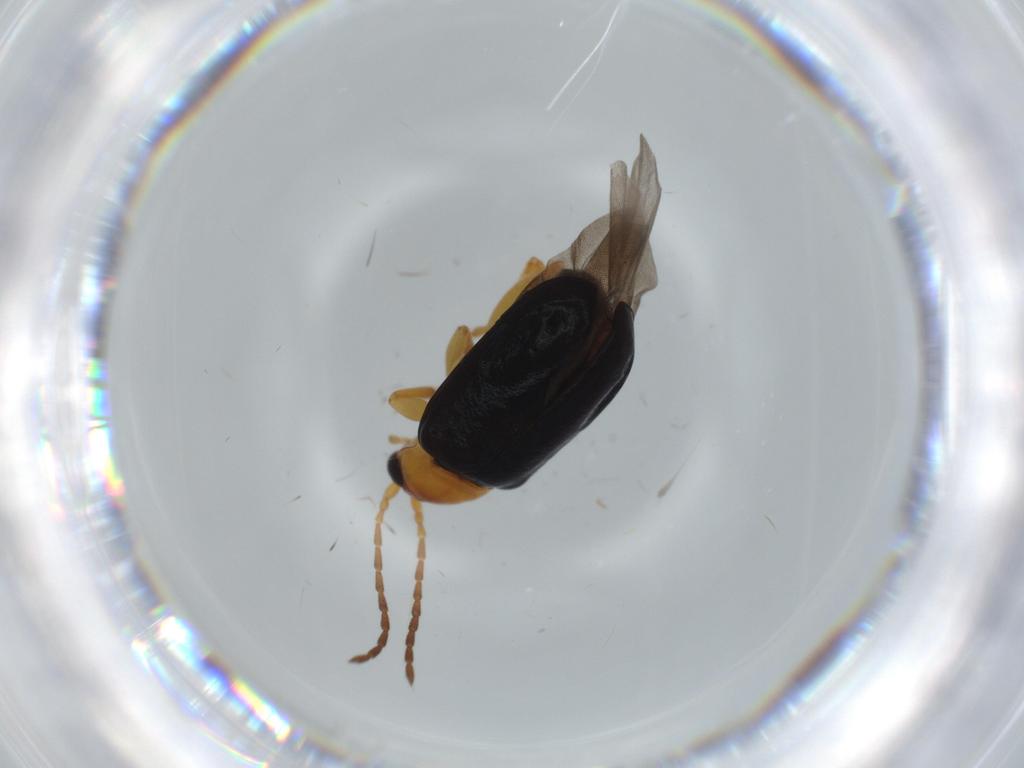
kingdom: Animalia
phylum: Arthropoda
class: Insecta
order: Coleoptera
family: Chrysomelidae
